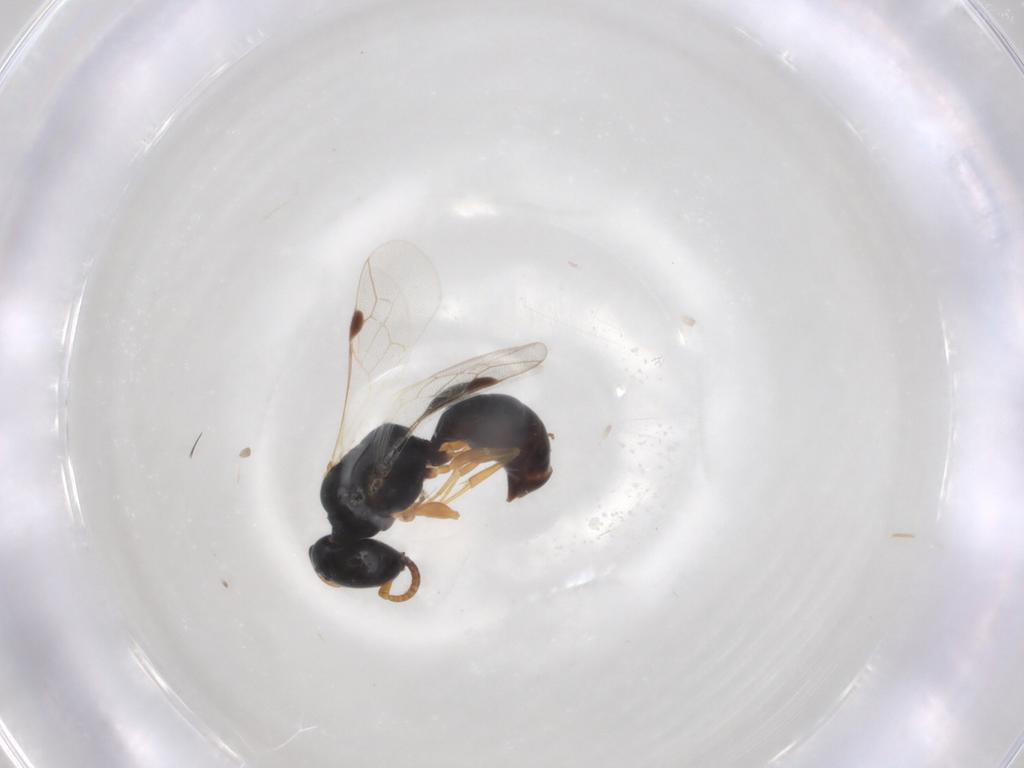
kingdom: Animalia
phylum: Arthropoda
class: Insecta
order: Hymenoptera
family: Pemphredonidae
